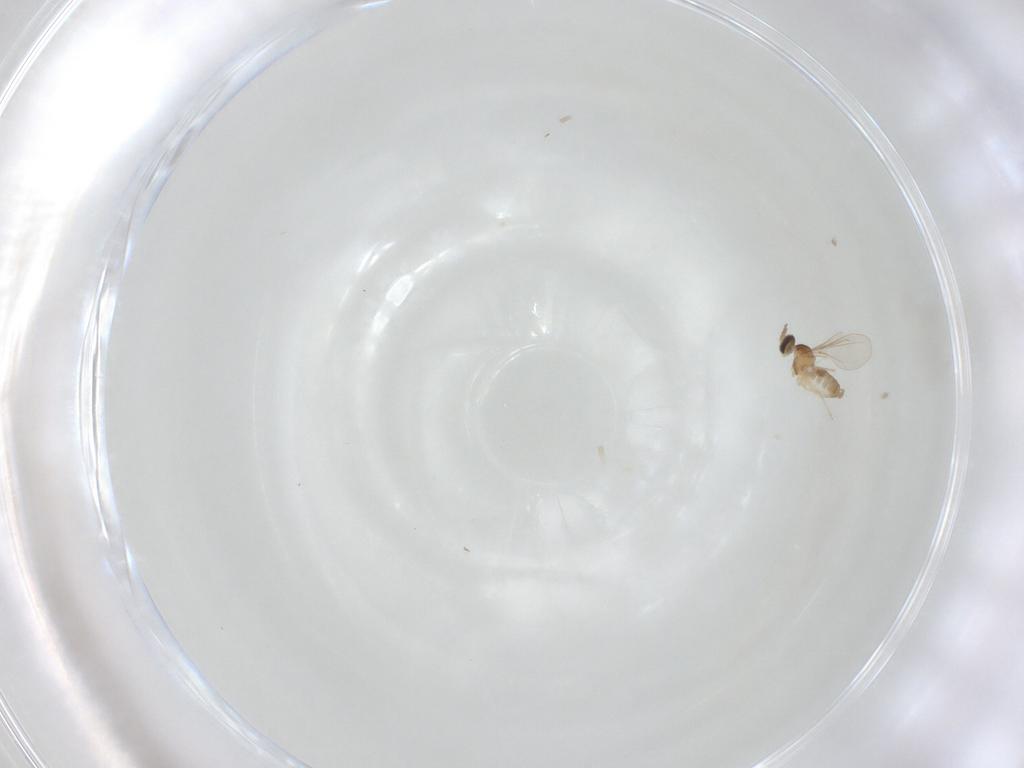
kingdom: Animalia
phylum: Arthropoda
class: Insecta
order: Diptera
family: Cecidomyiidae
